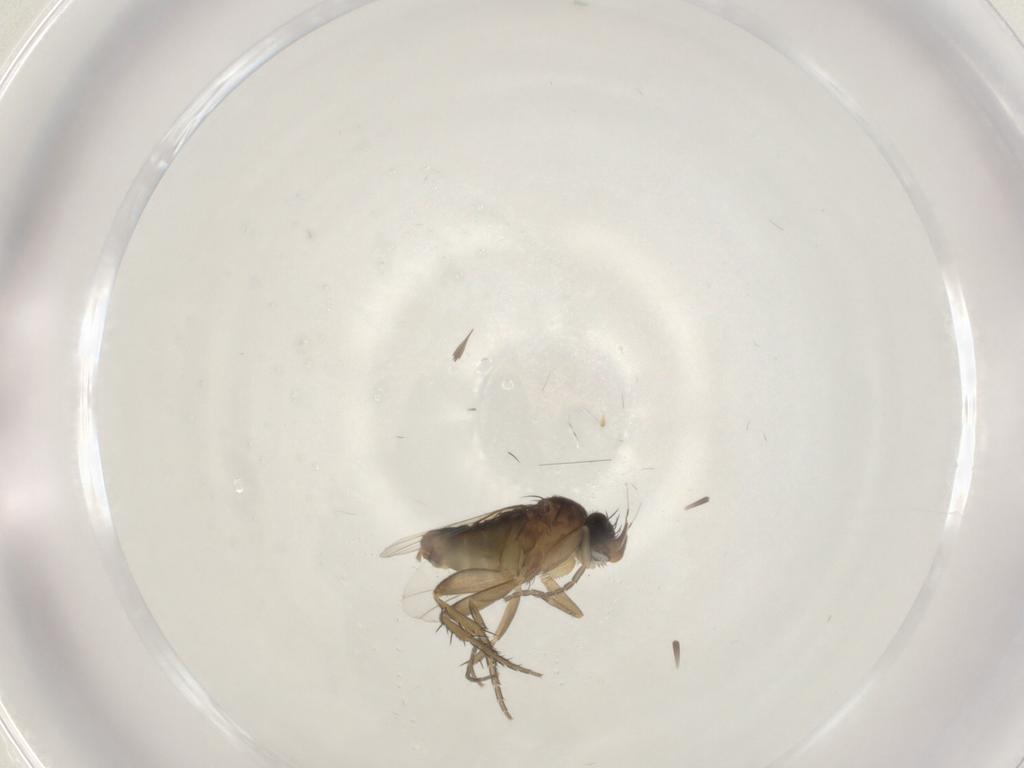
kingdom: Animalia
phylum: Arthropoda
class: Insecta
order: Diptera
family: Phoridae
